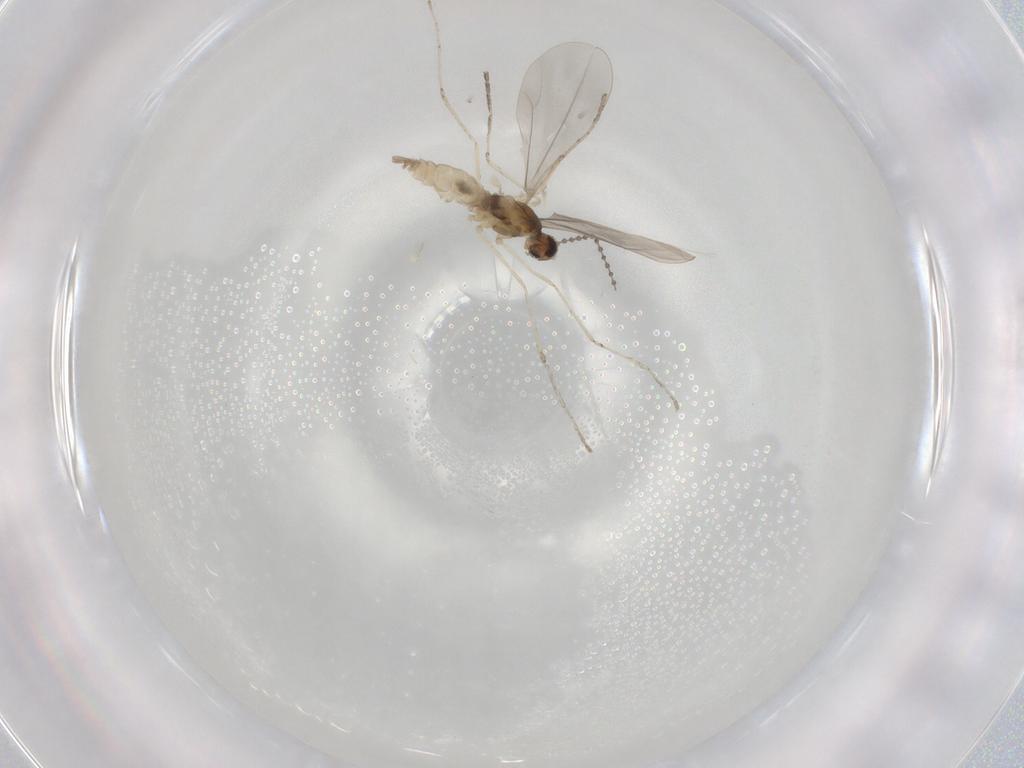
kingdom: Animalia
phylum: Arthropoda
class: Insecta
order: Diptera
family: Cecidomyiidae
